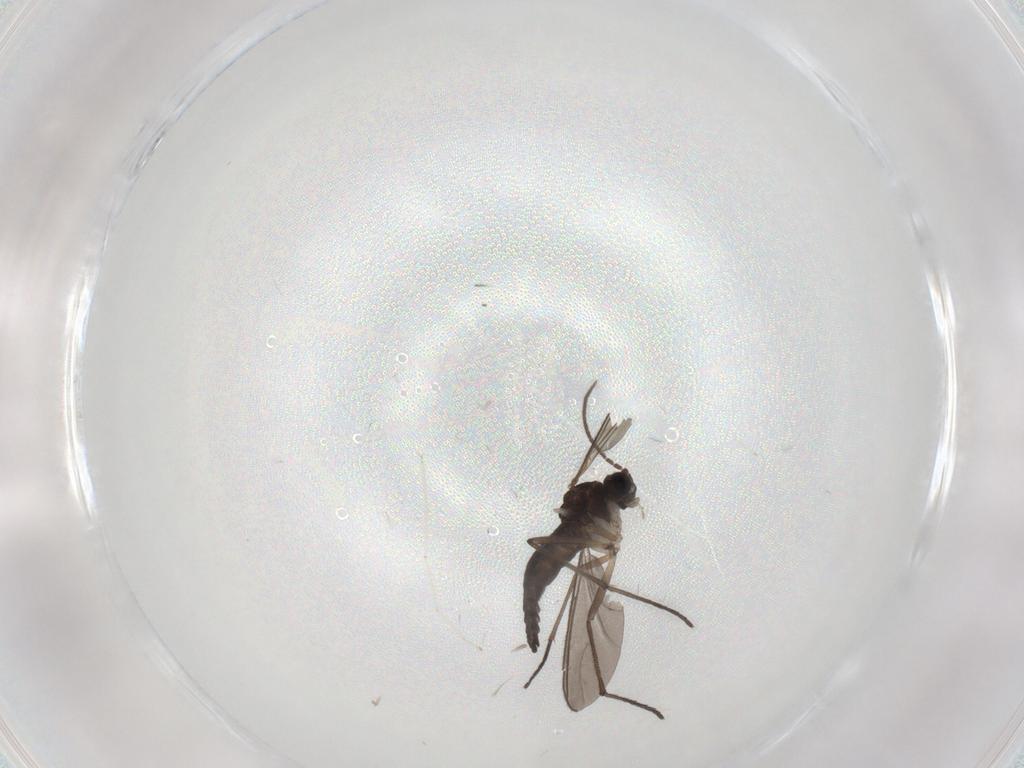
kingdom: Animalia
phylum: Arthropoda
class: Insecta
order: Diptera
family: Sciaridae
